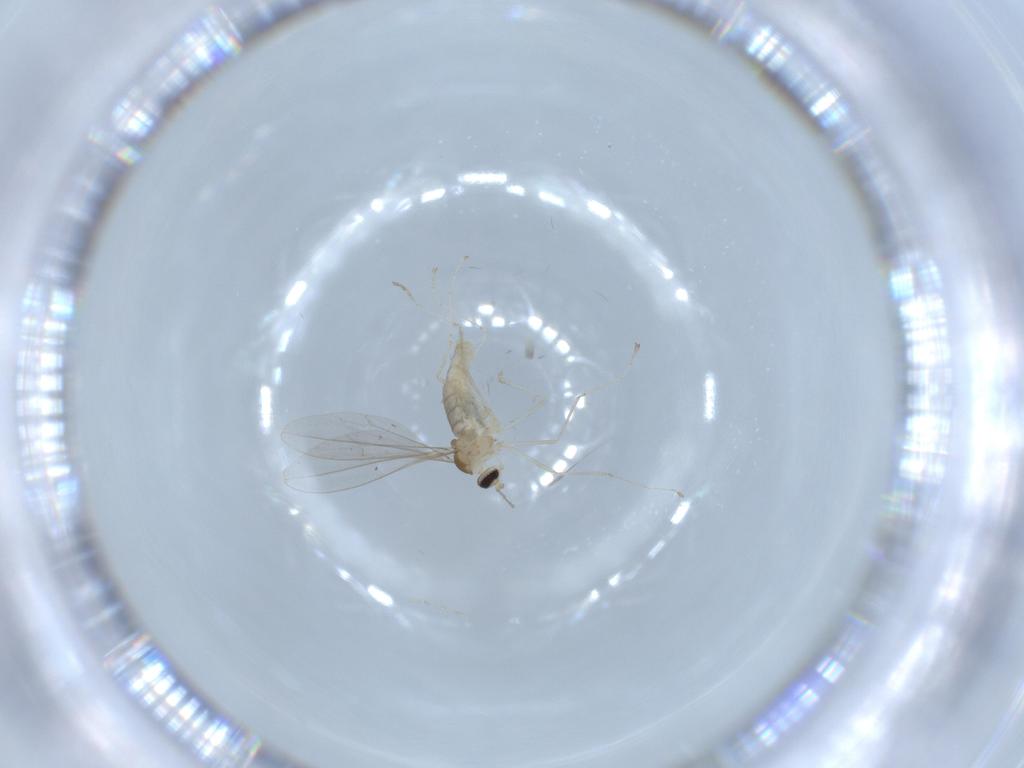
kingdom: Animalia
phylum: Arthropoda
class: Insecta
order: Diptera
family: Cecidomyiidae
